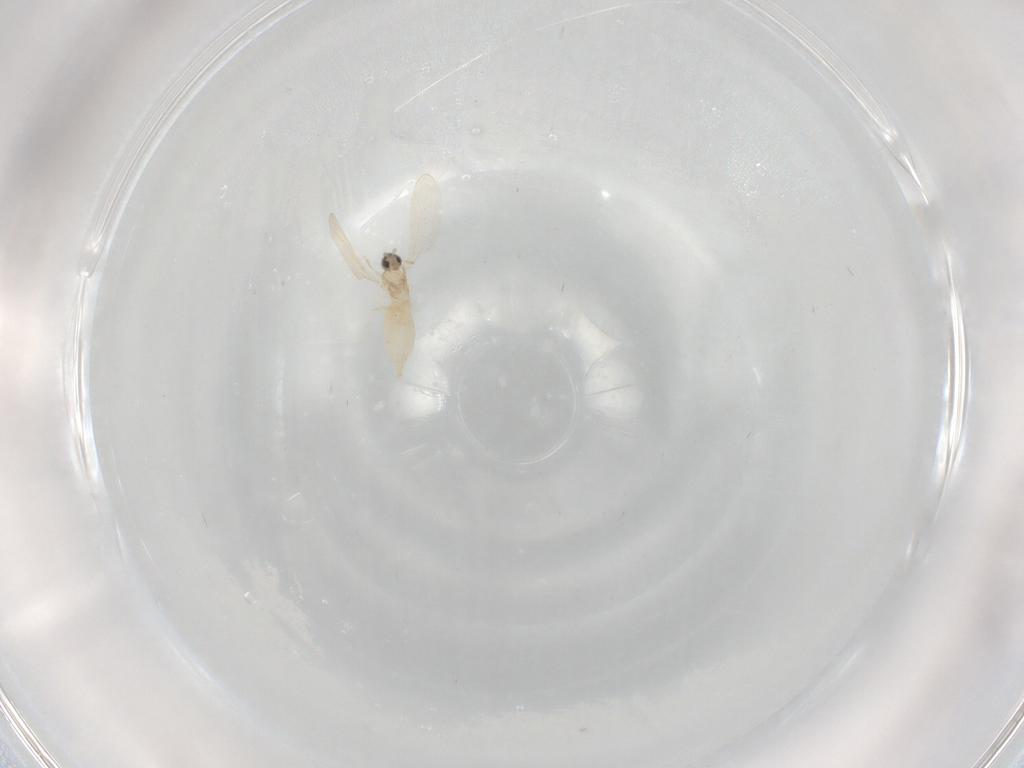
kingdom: Animalia
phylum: Arthropoda
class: Insecta
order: Diptera
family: Cecidomyiidae
